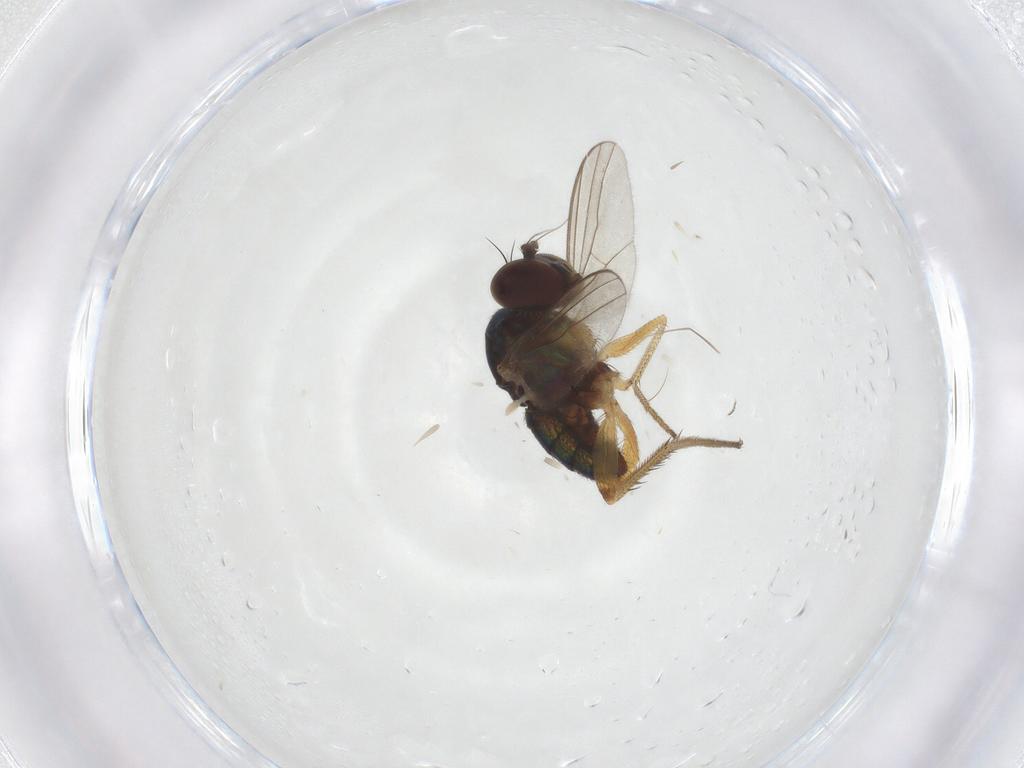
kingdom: Animalia
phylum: Arthropoda
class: Insecta
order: Diptera
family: Dolichopodidae
